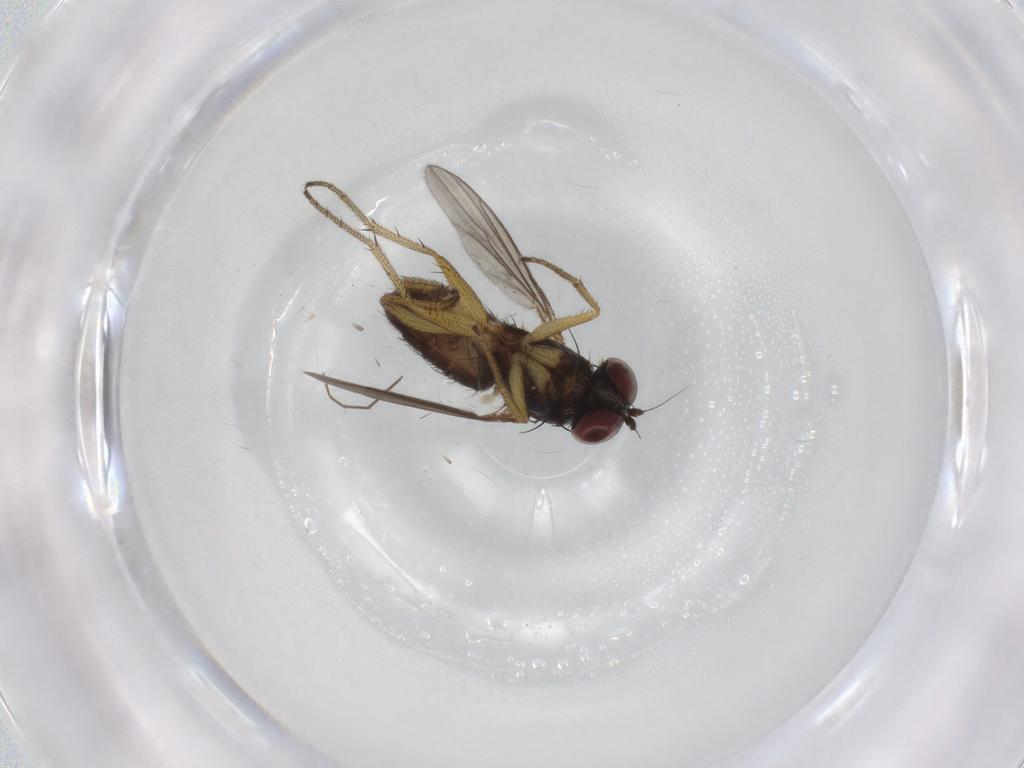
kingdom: Animalia
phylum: Arthropoda
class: Insecta
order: Diptera
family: Dolichopodidae
